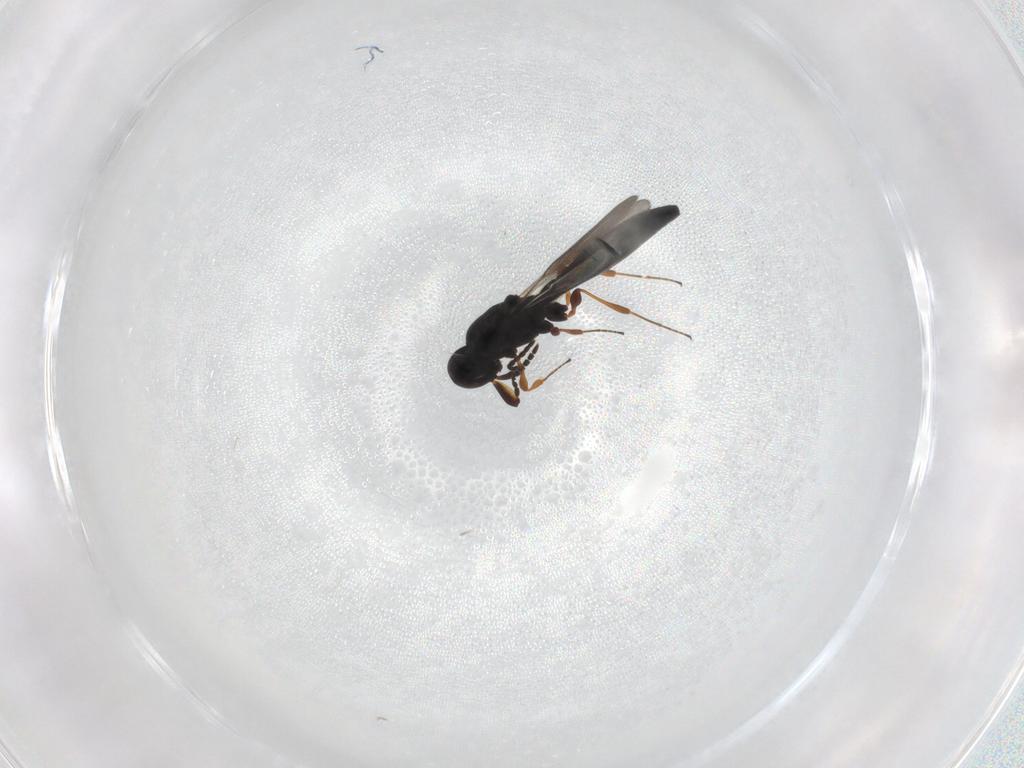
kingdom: Animalia
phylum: Arthropoda
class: Insecta
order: Hymenoptera
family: Platygastridae
